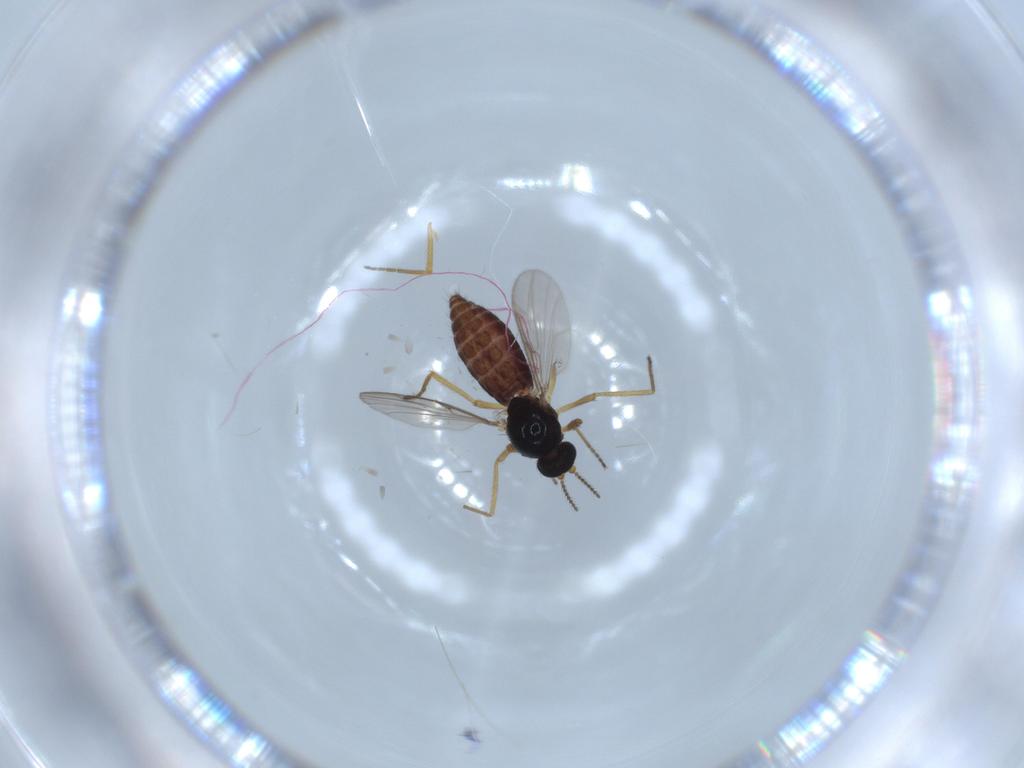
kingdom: Animalia
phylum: Arthropoda
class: Insecta
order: Diptera
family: Ceratopogonidae
